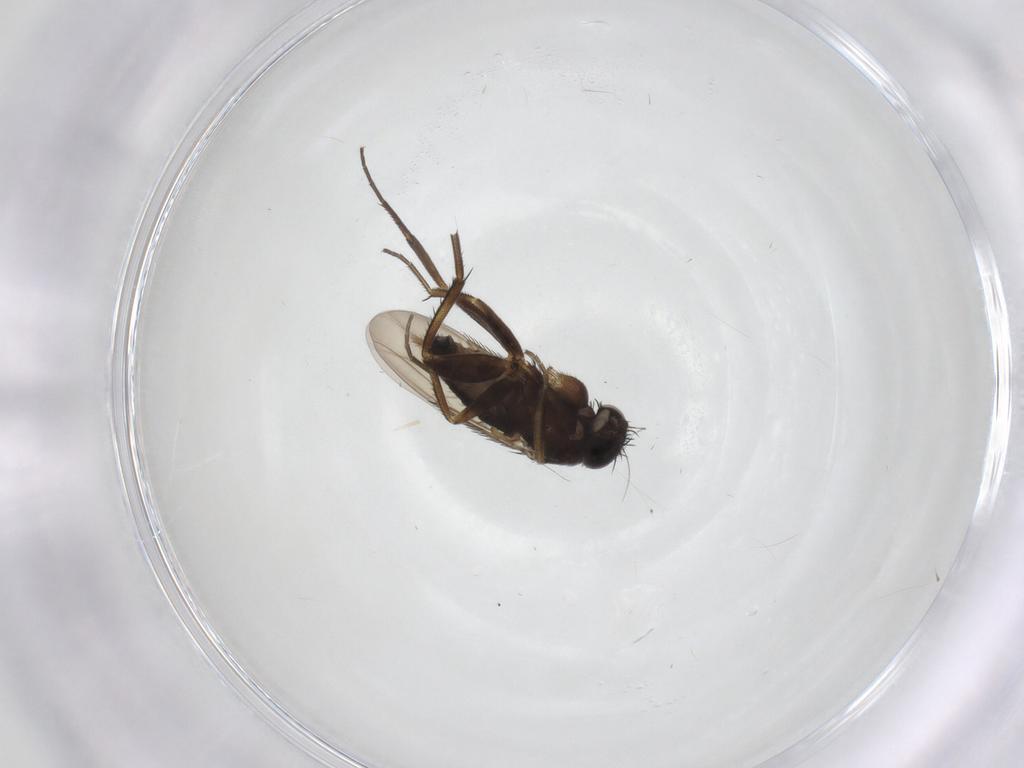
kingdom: Animalia
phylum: Arthropoda
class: Insecta
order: Diptera
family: Phoridae
